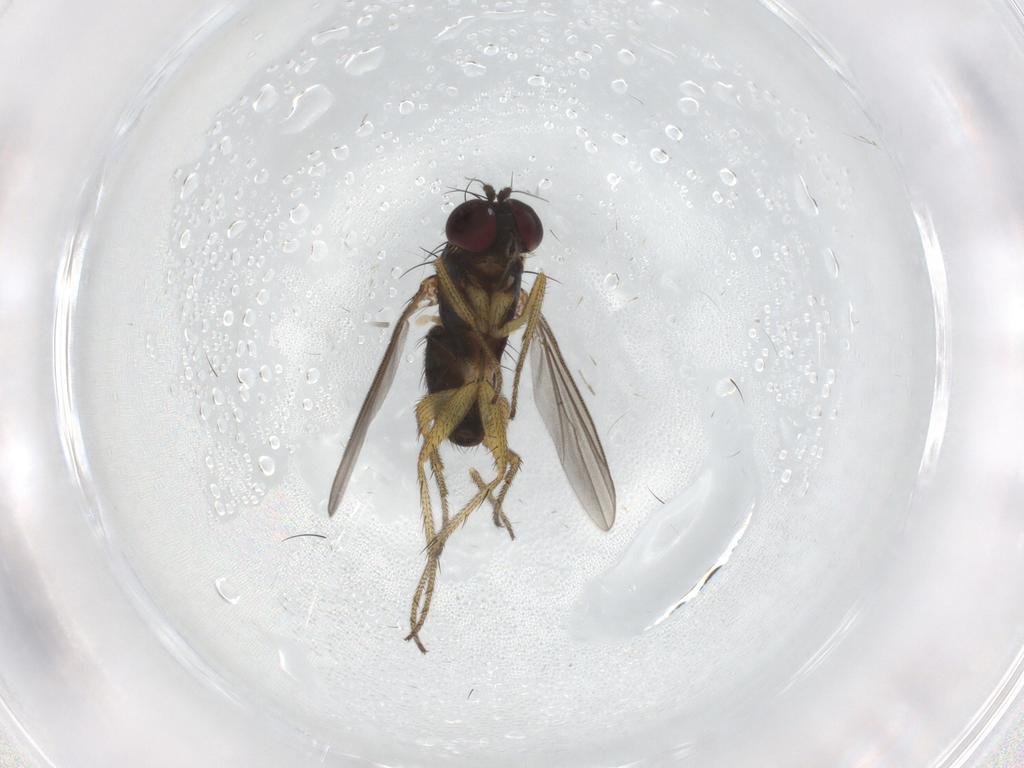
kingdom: Animalia
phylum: Arthropoda
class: Insecta
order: Diptera
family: Chironomidae
